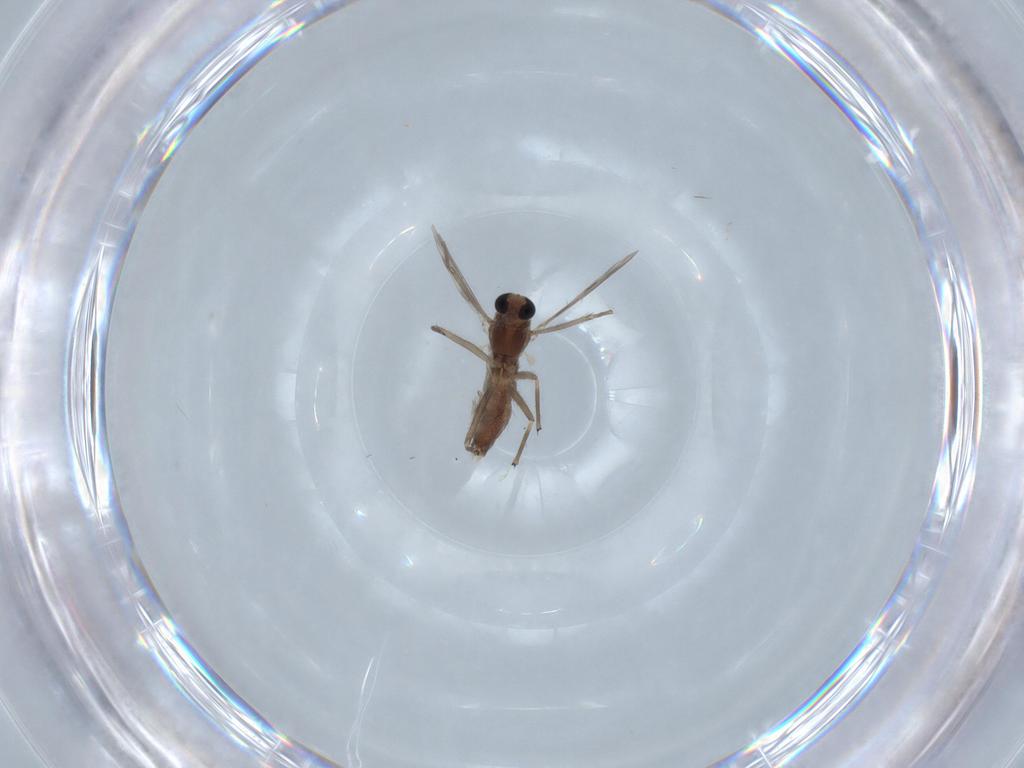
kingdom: Animalia
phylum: Arthropoda
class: Insecta
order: Diptera
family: Chironomidae
